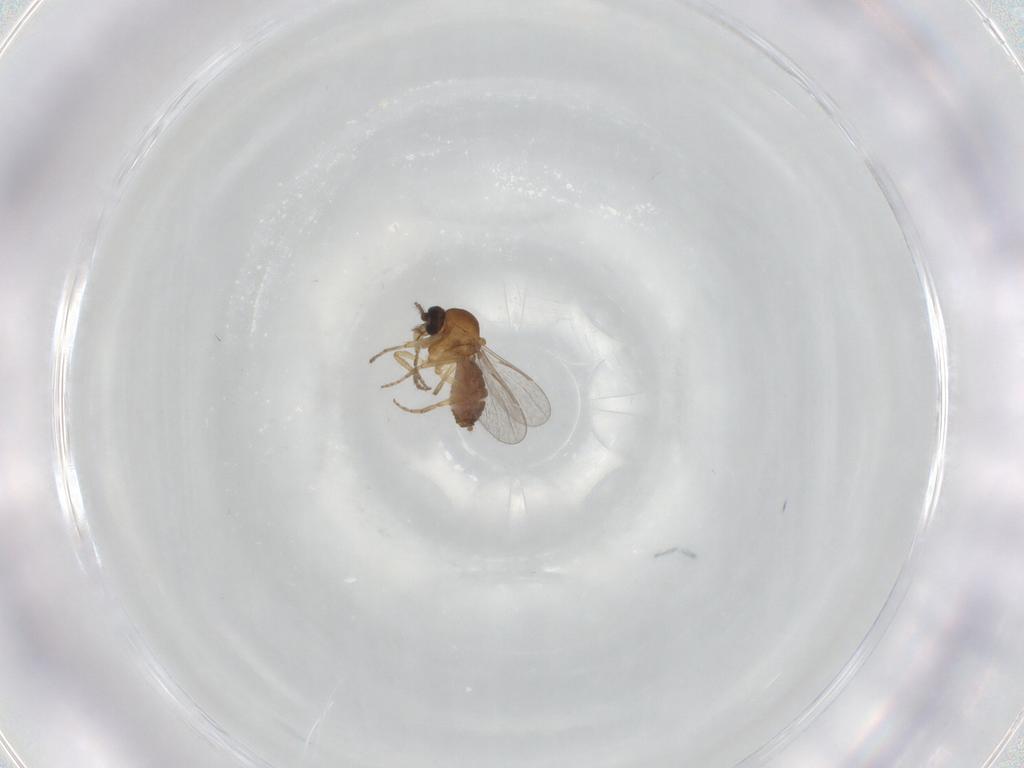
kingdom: Animalia
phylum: Arthropoda
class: Insecta
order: Diptera
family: Ceratopogonidae
